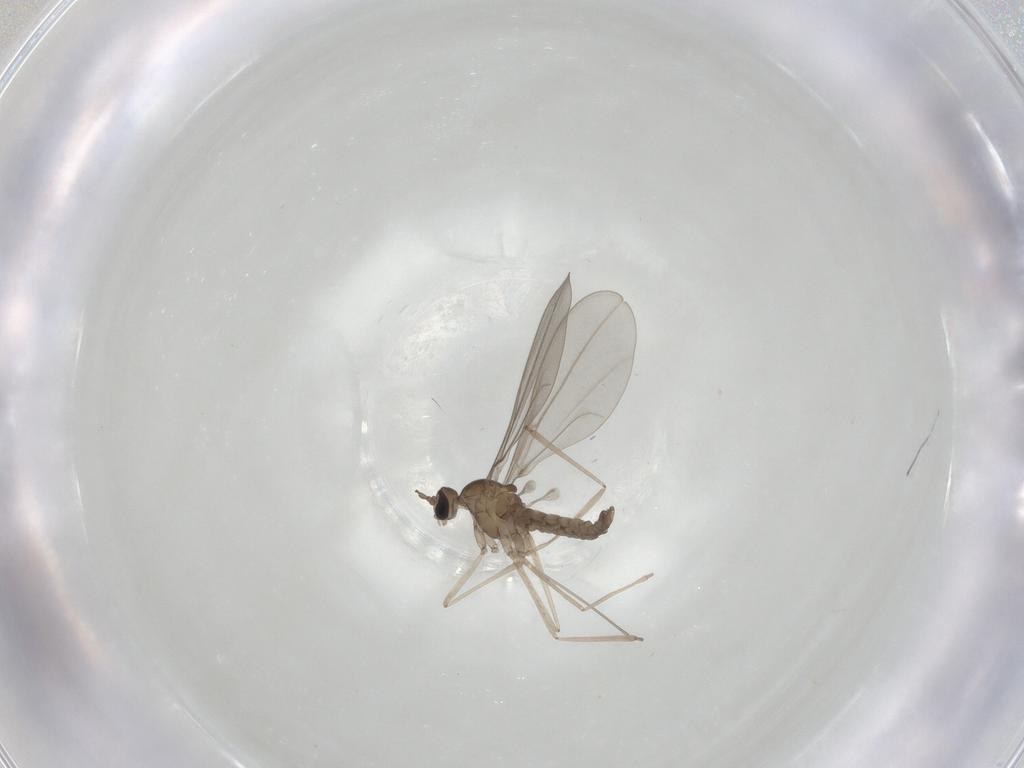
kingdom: Animalia
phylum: Arthropoda
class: Insecta
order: Diptera
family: Cecidomyiidae
